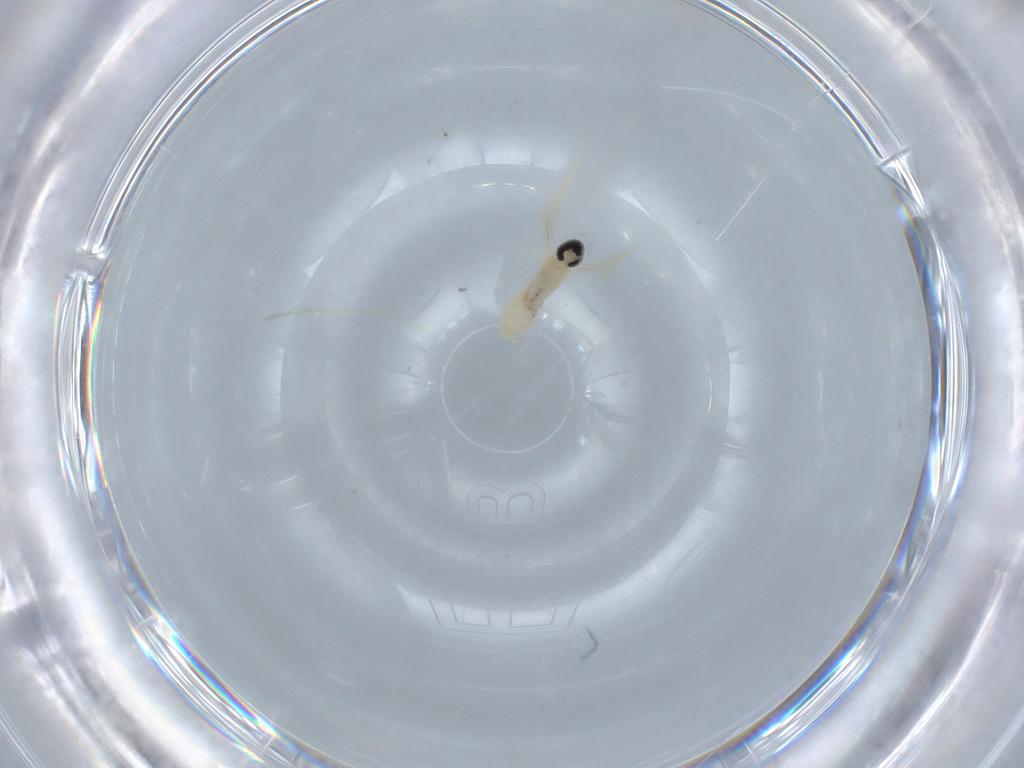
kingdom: Animalia
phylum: Arthropoda
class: Insecta
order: Diptera
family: Cecidomyiidae
